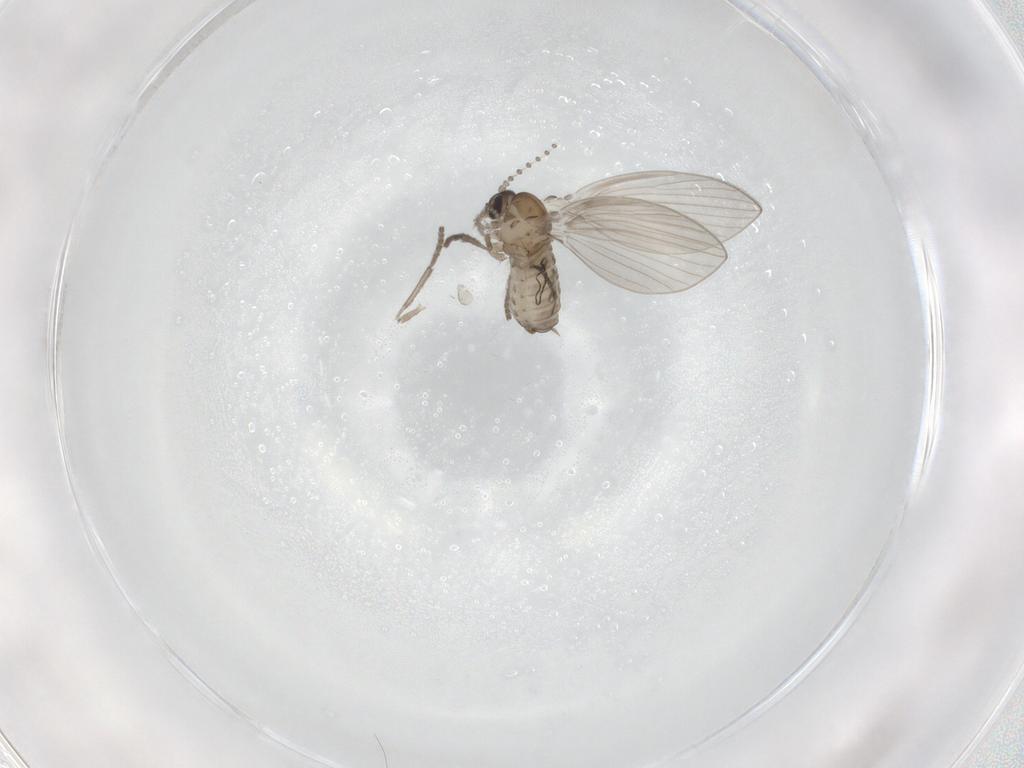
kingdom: Animalia
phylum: Arthropoda
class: Insecta
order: Diptera
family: Psychodidae
